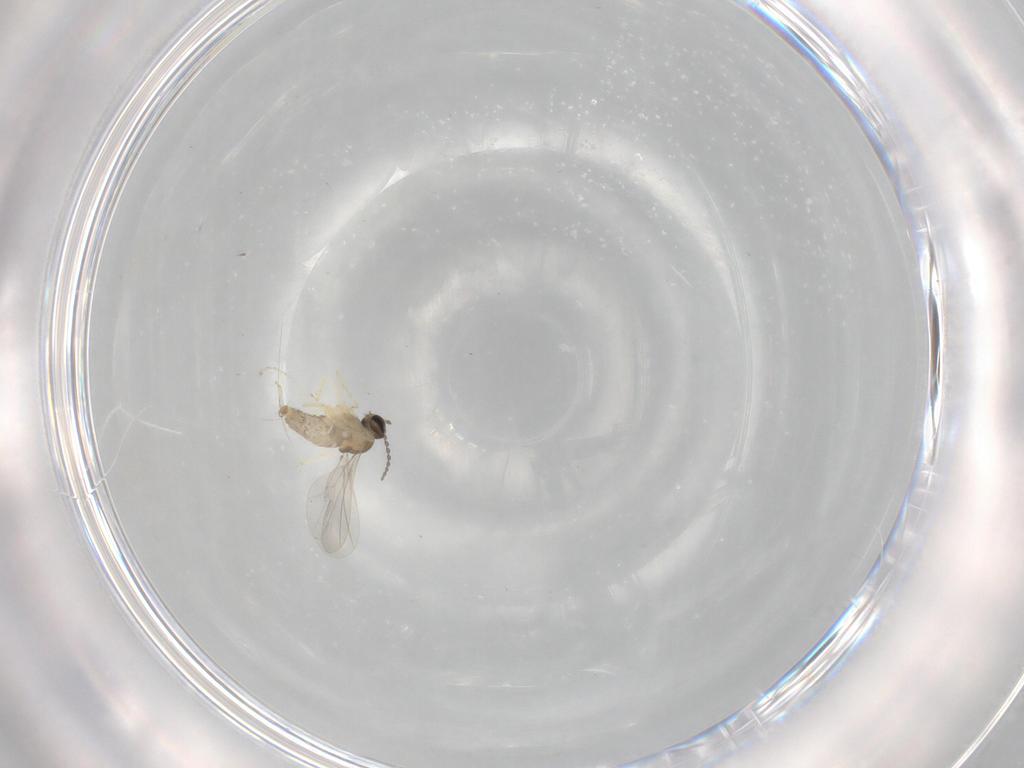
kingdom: Animalia
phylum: Arthropoda
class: Insecta
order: Diptera
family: Cecidomyiidae
